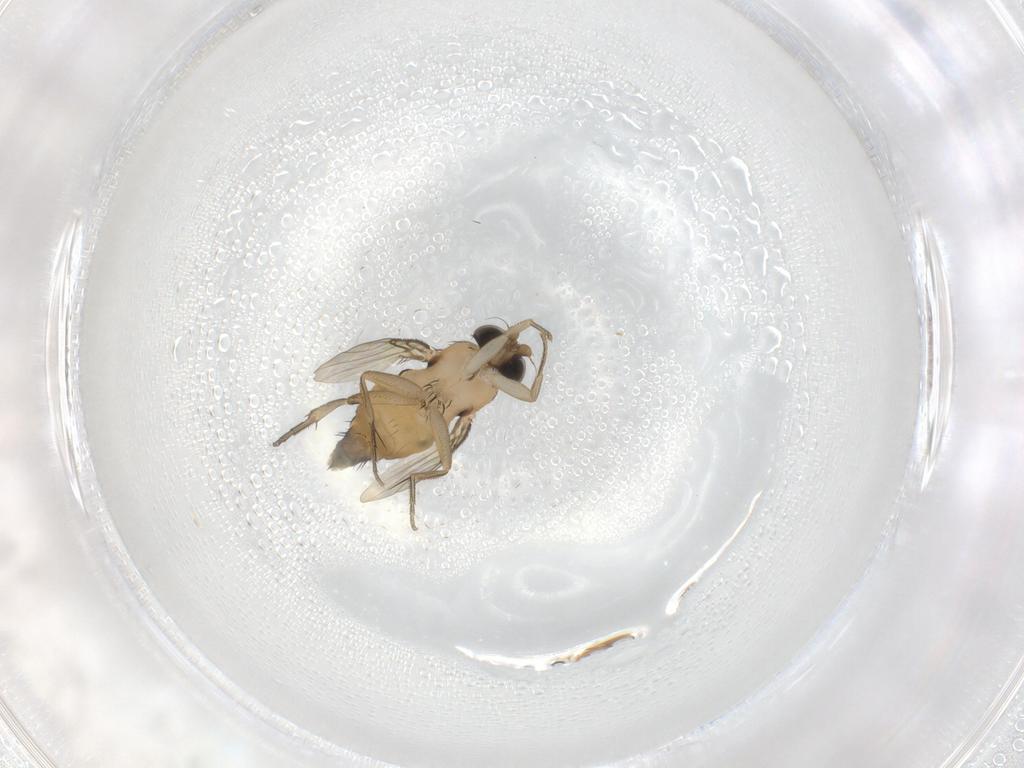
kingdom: Animalia
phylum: Arthropoda
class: Insecta
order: Diptera
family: Phoridae
